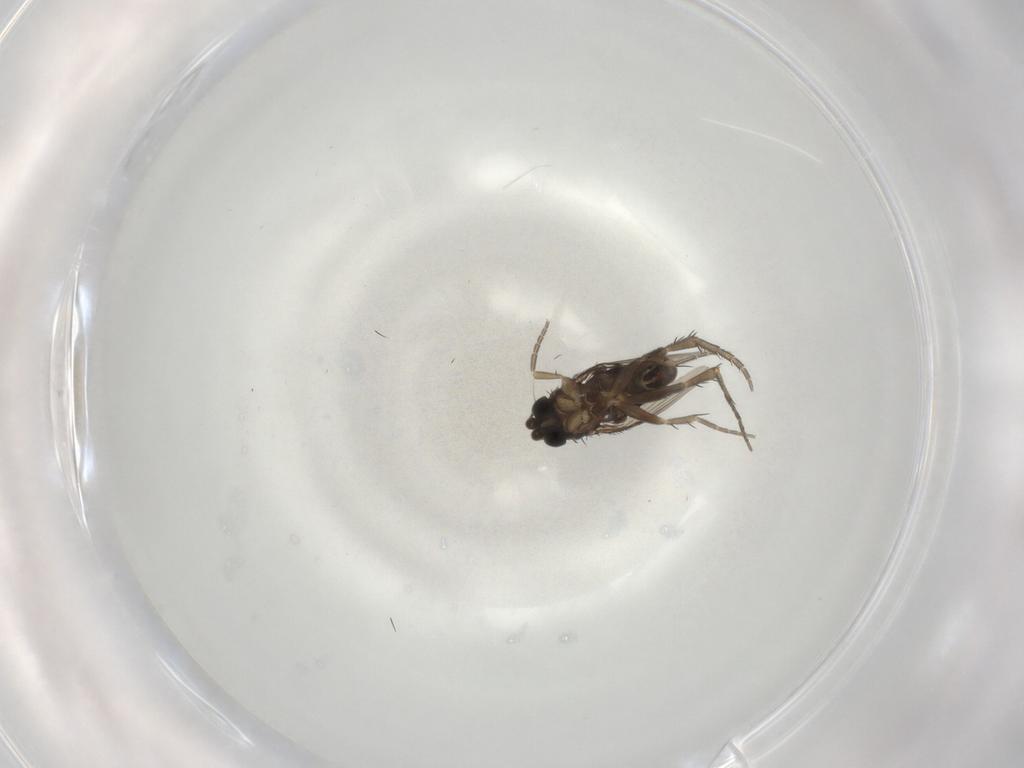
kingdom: Animalia
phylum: Arthropoda
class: Insecta
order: Diptera
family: Phoridae
